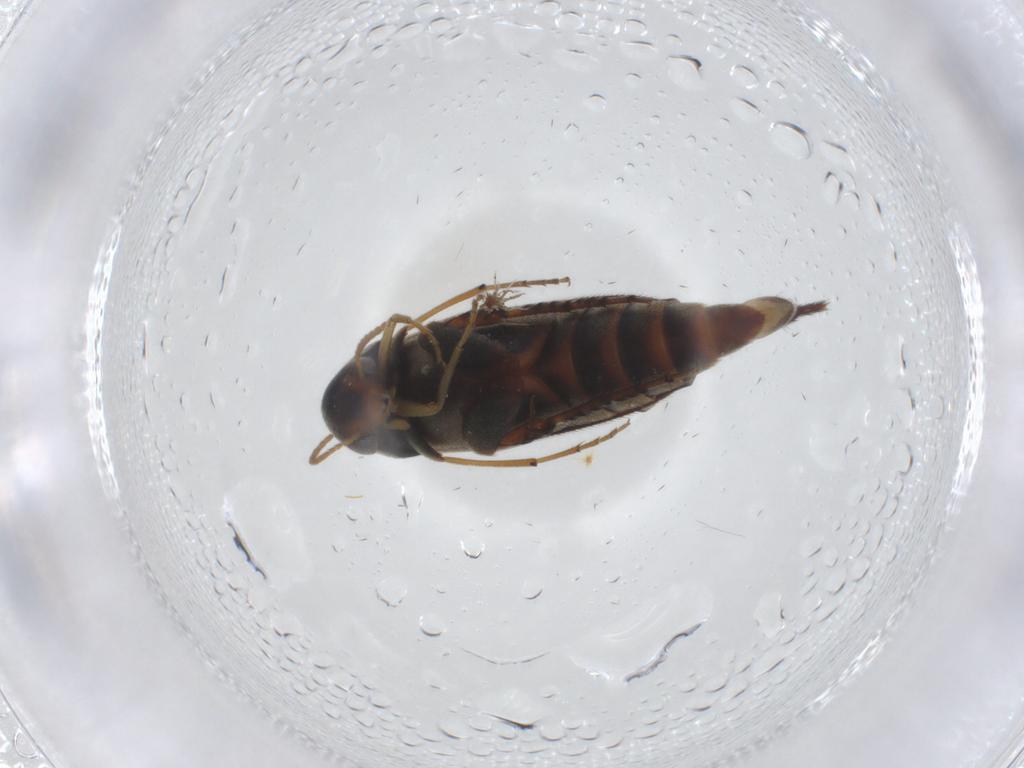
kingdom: Animalia
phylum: Arthropoda
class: Insecta
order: Coleoptera
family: Mordellidae
